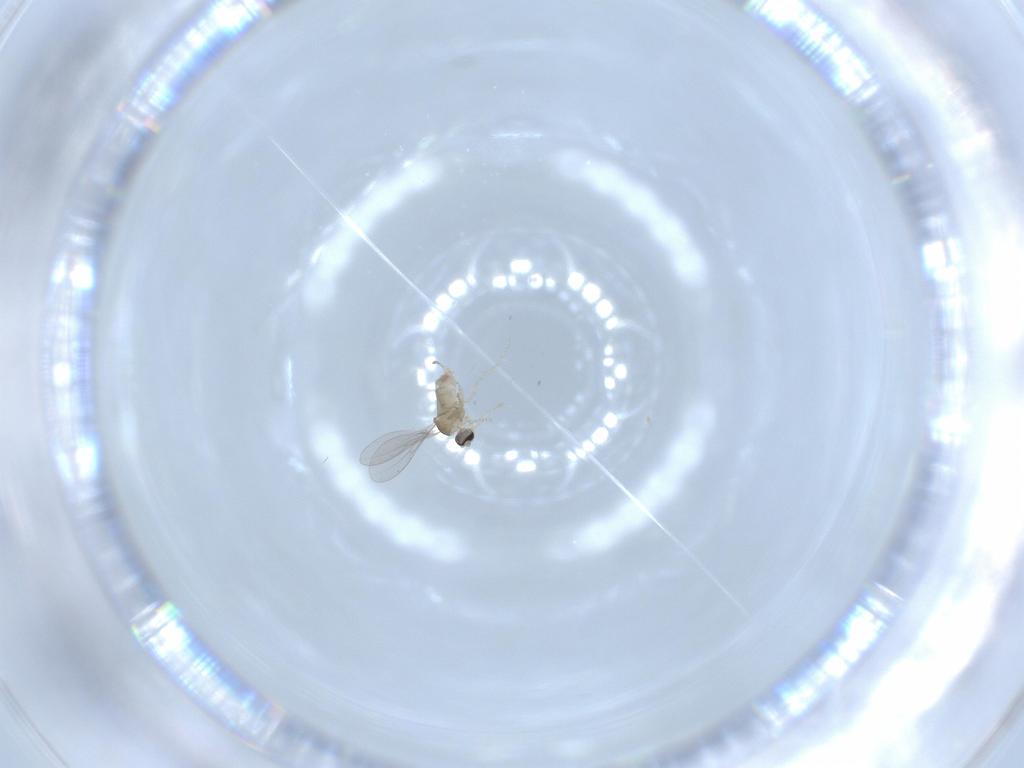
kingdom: Animalia
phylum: Arthropoda
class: Insecta
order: Diptera
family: Cecidomyiidae
